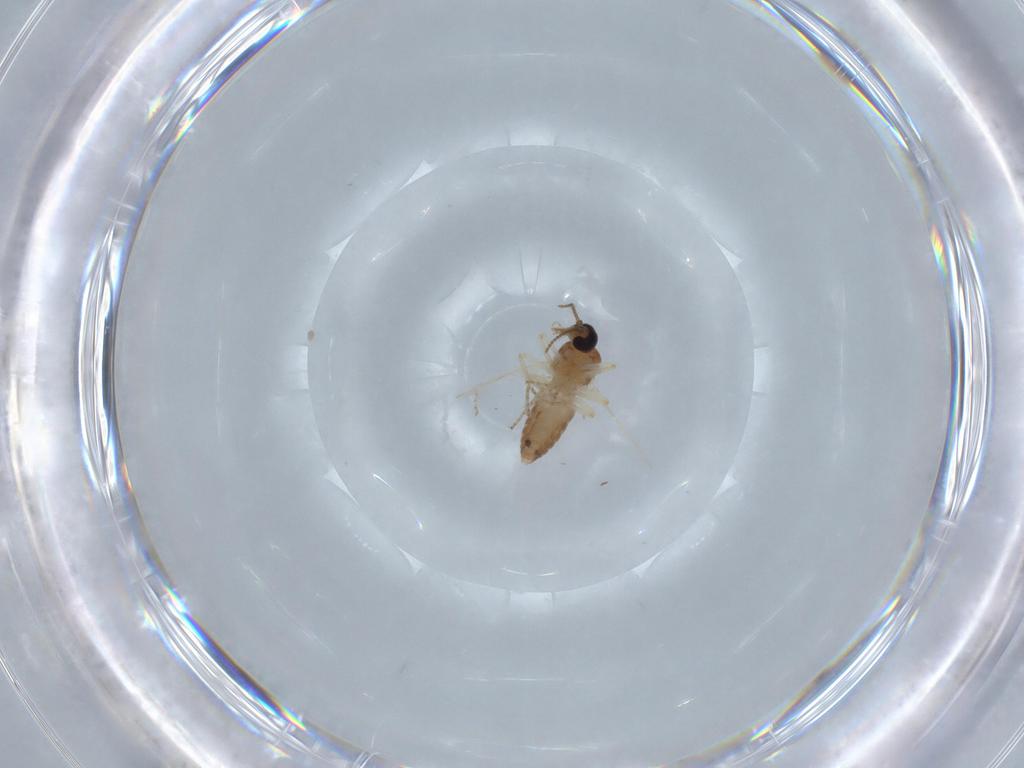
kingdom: Animalia
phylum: Arthropoda
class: Insecta
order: Diptera
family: Ceratopogonidae
